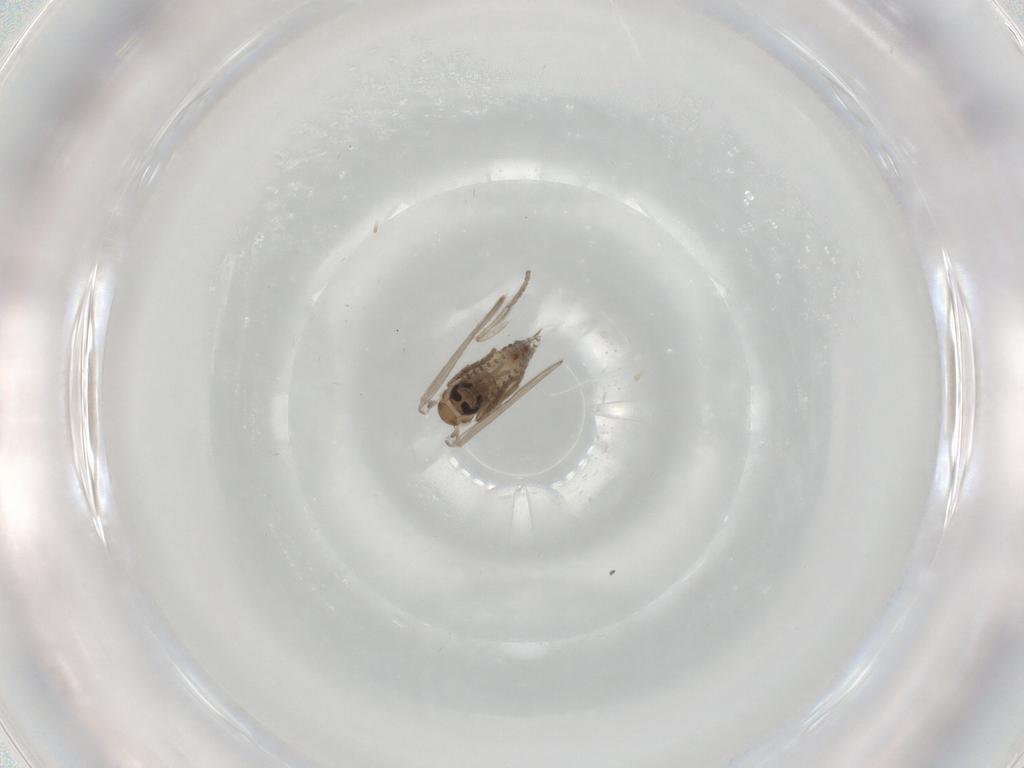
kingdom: Animalia
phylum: Arthropoda
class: Insecta
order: Diptera
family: Psychodidae
